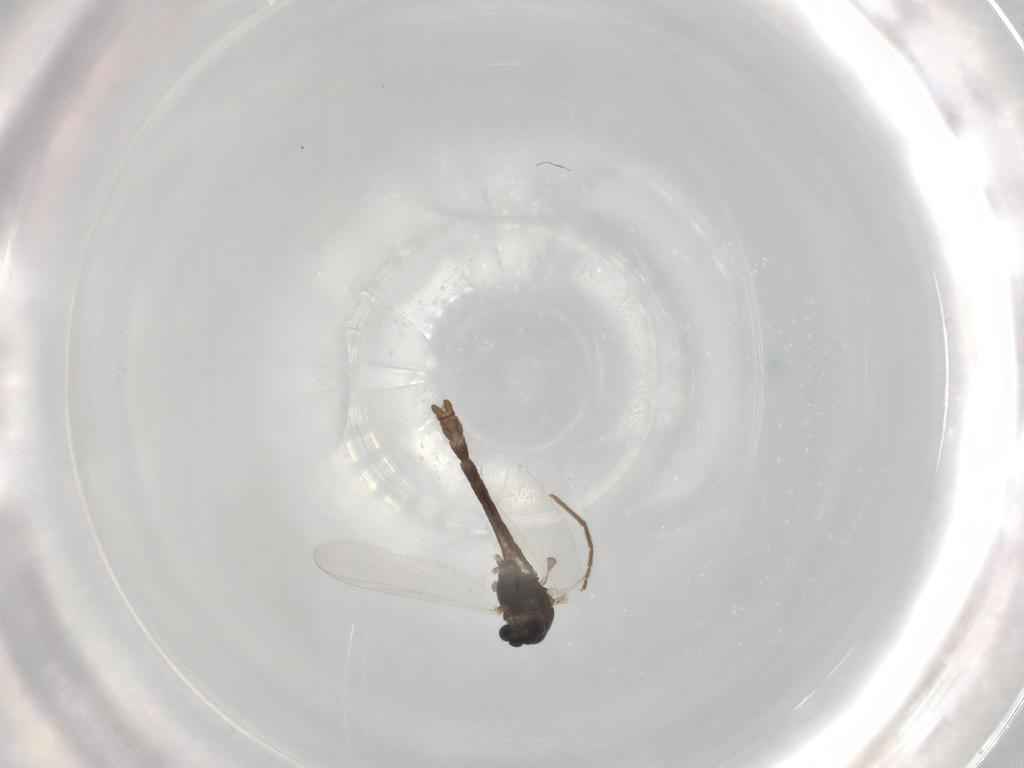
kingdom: Animalia
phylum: Arthropoda
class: Insecta
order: Diptera
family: Chironomidae
